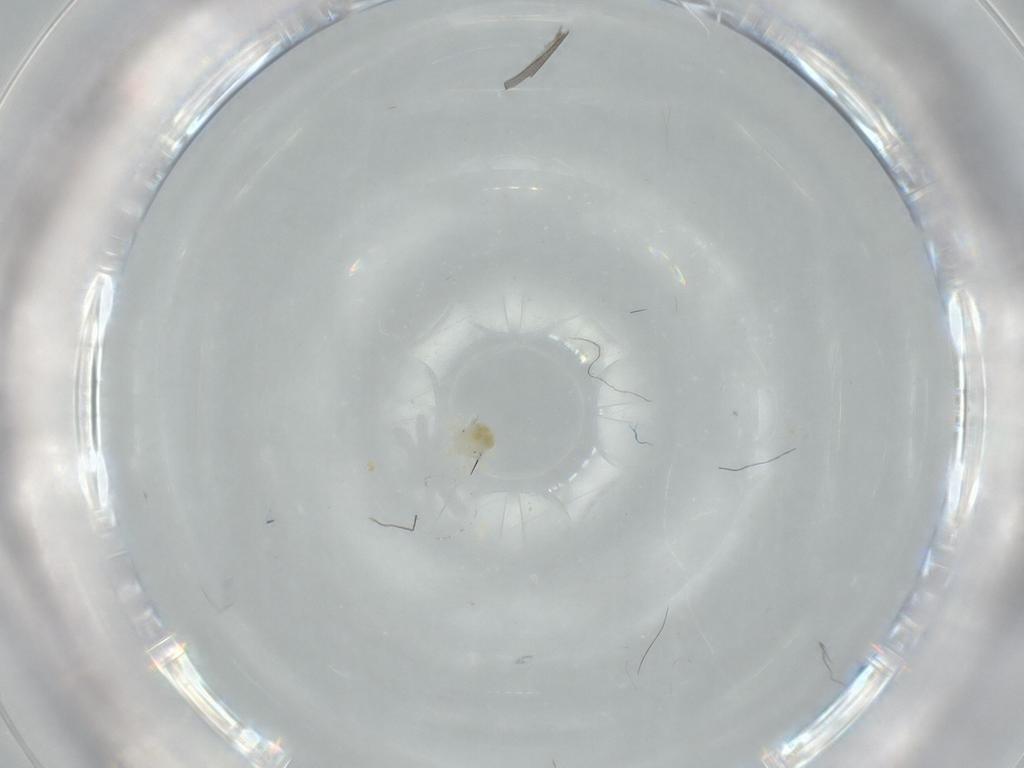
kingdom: Animalia
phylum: Arthropoda
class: Arachnida
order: Trombidiformes
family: Anystidae
